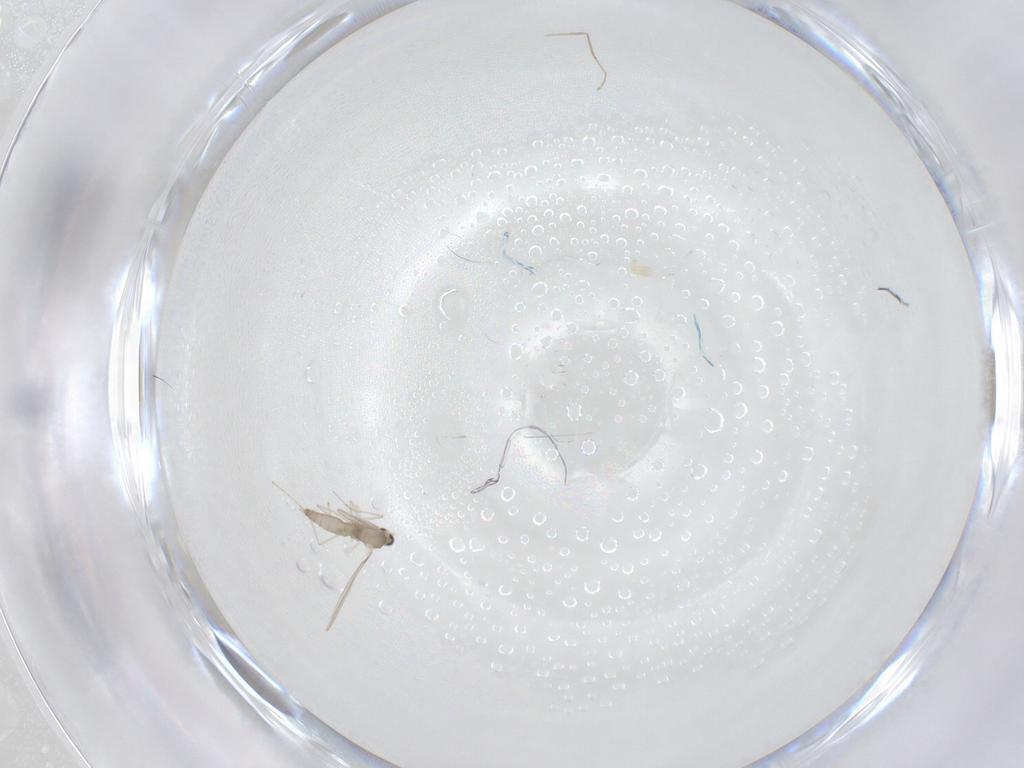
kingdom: Animalia
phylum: Arthropoda
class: Insecta
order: Diptera
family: Cecidomyiidae
